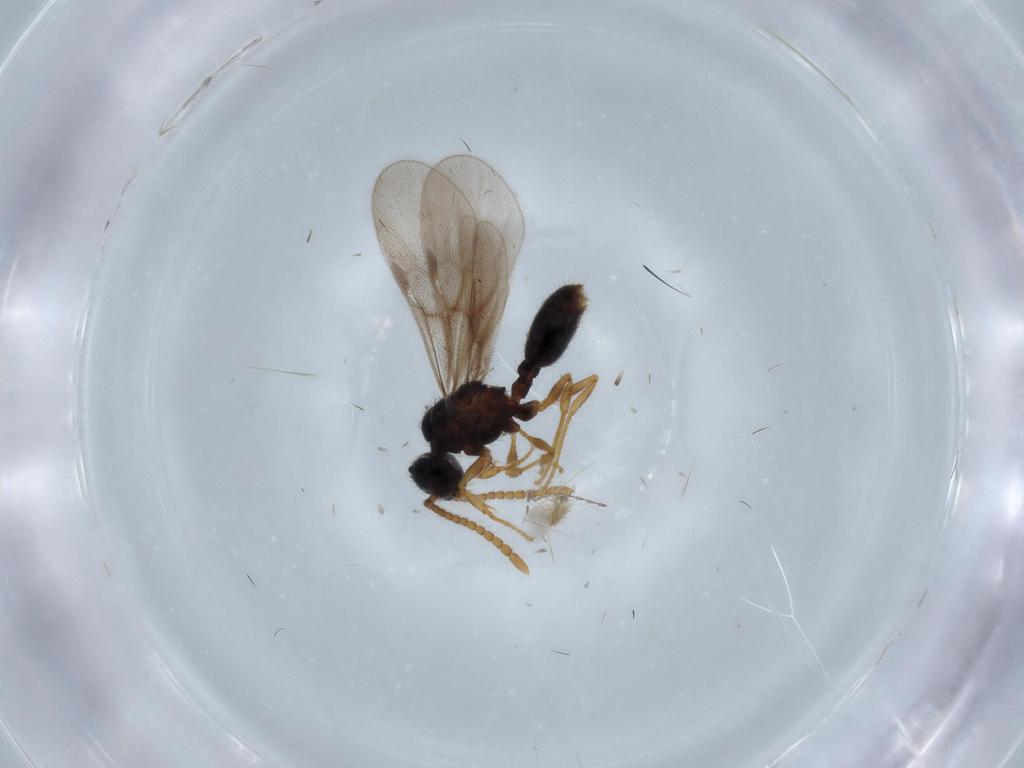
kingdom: Animalia
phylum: Arthropoda
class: Insecta
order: Hymenoptera
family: Formicidae
